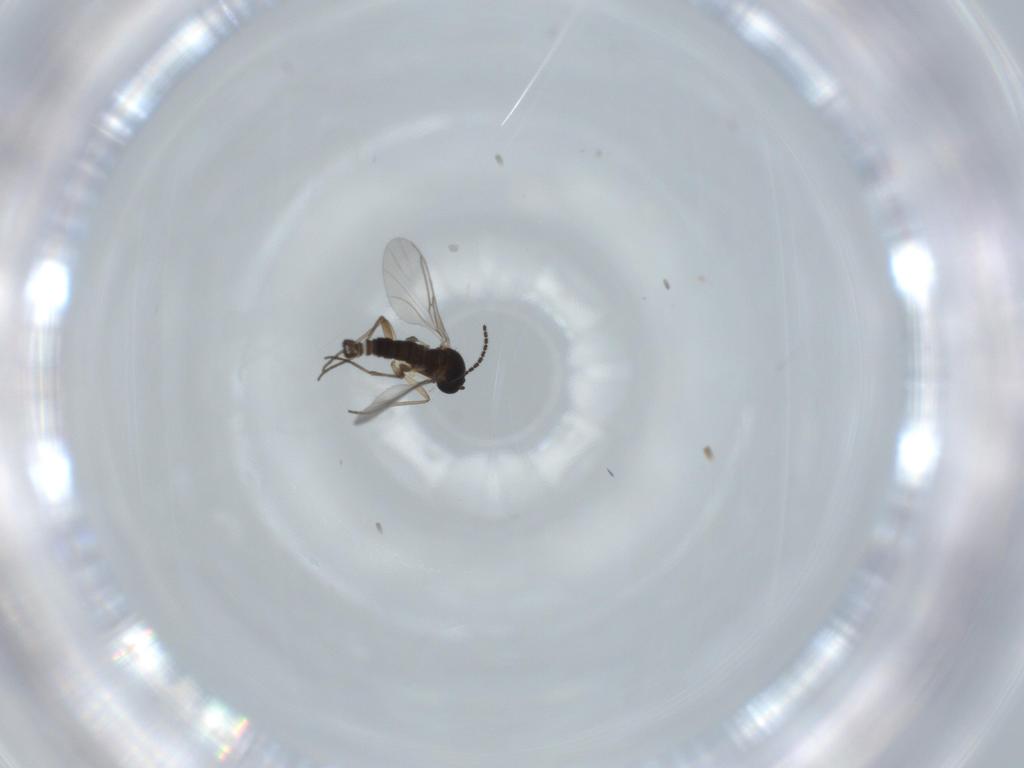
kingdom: Animalia
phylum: Arthropoda
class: Insecta
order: Diptera
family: Sciaridae
